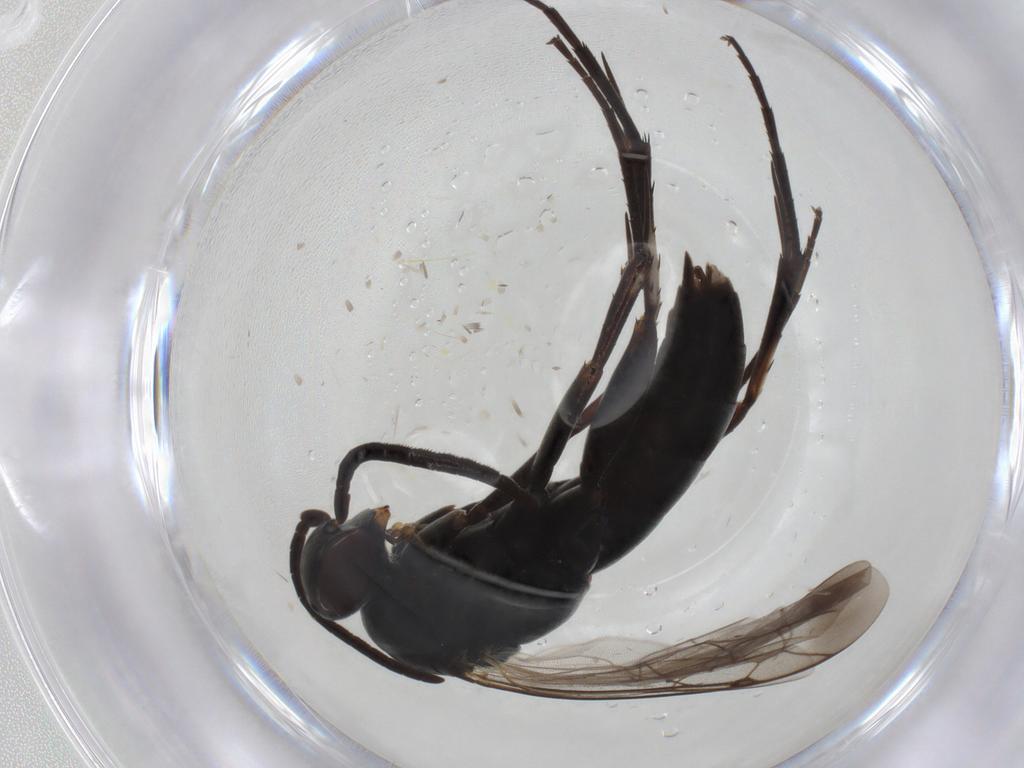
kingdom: Animalia
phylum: Arthropoda
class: Insecta
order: Hymenoptera
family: Pompilidae
